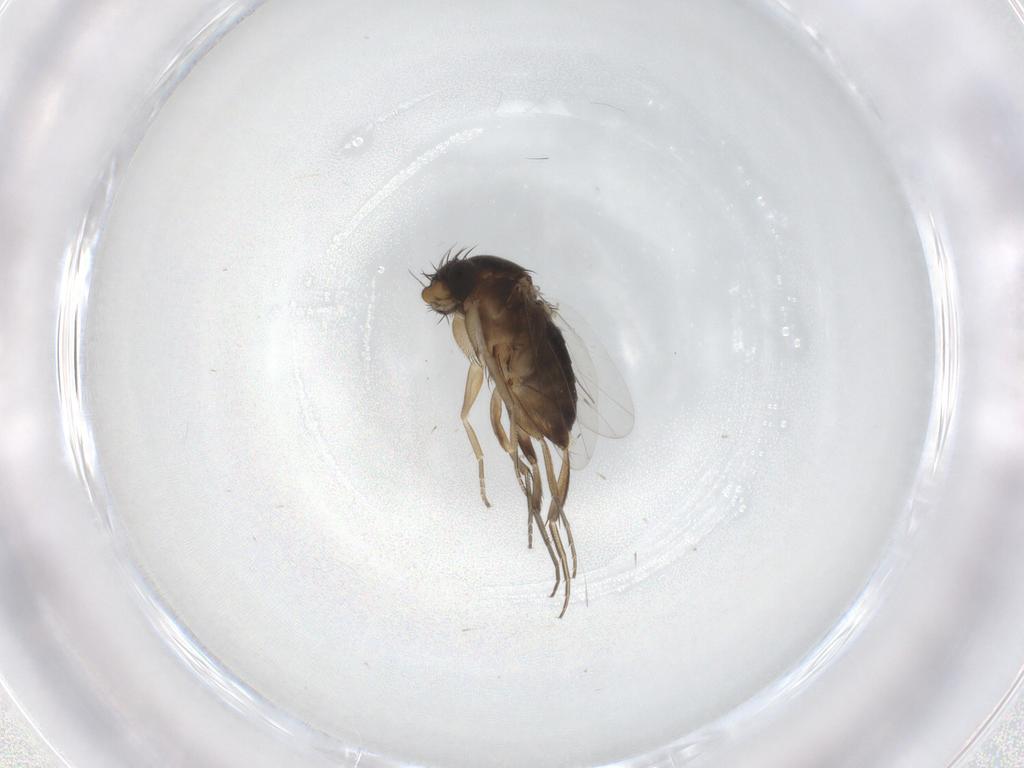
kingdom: Animalia
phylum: Arthropoda
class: Insecta
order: Diptera
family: Phoridae
